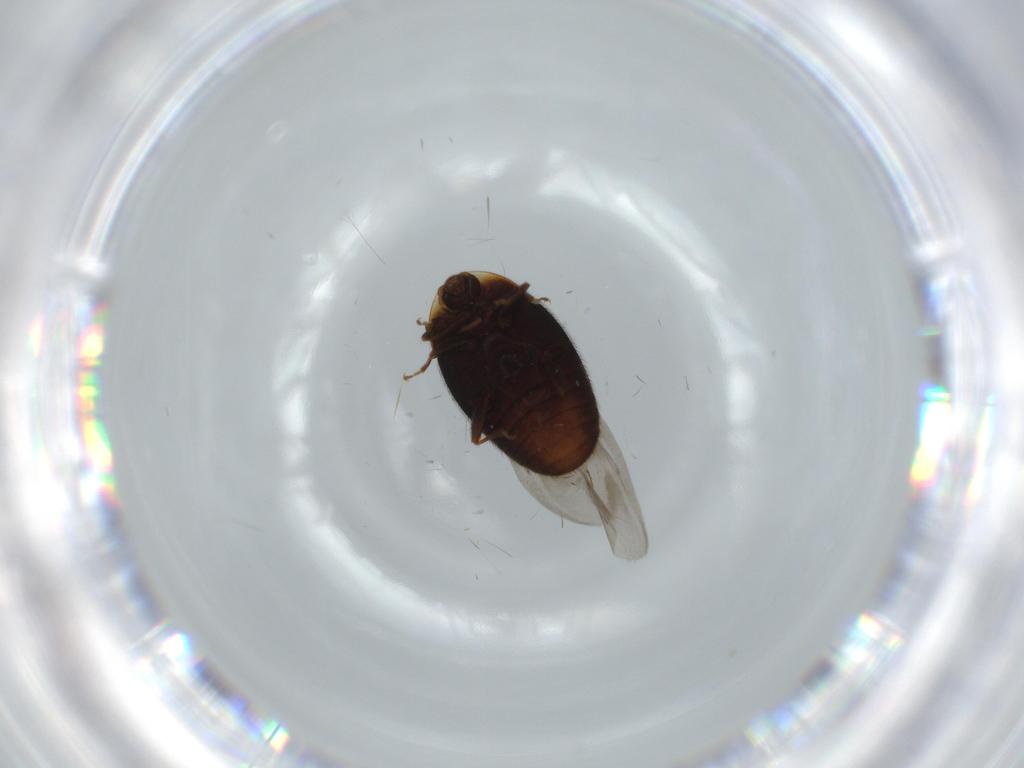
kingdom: Animalia
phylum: Arthropoda
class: Insecta
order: Coleoptera
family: Corylophidae
